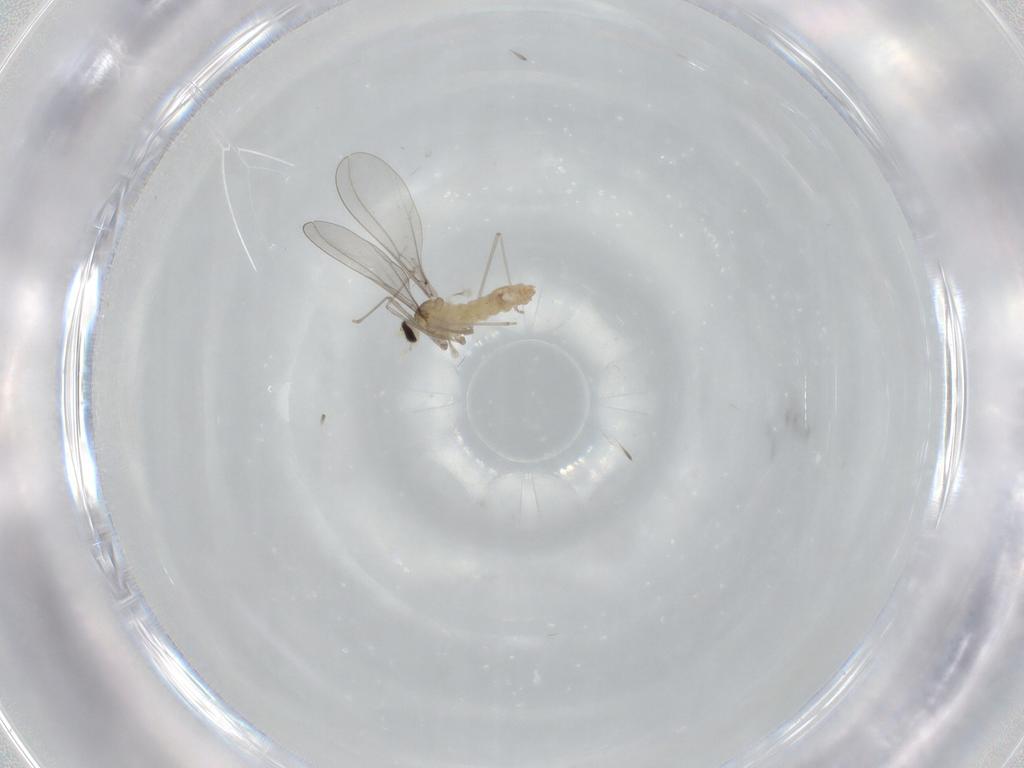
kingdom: Animalia
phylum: Arthropoda
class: Insecta
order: Diptera
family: Cecidomyiidae
